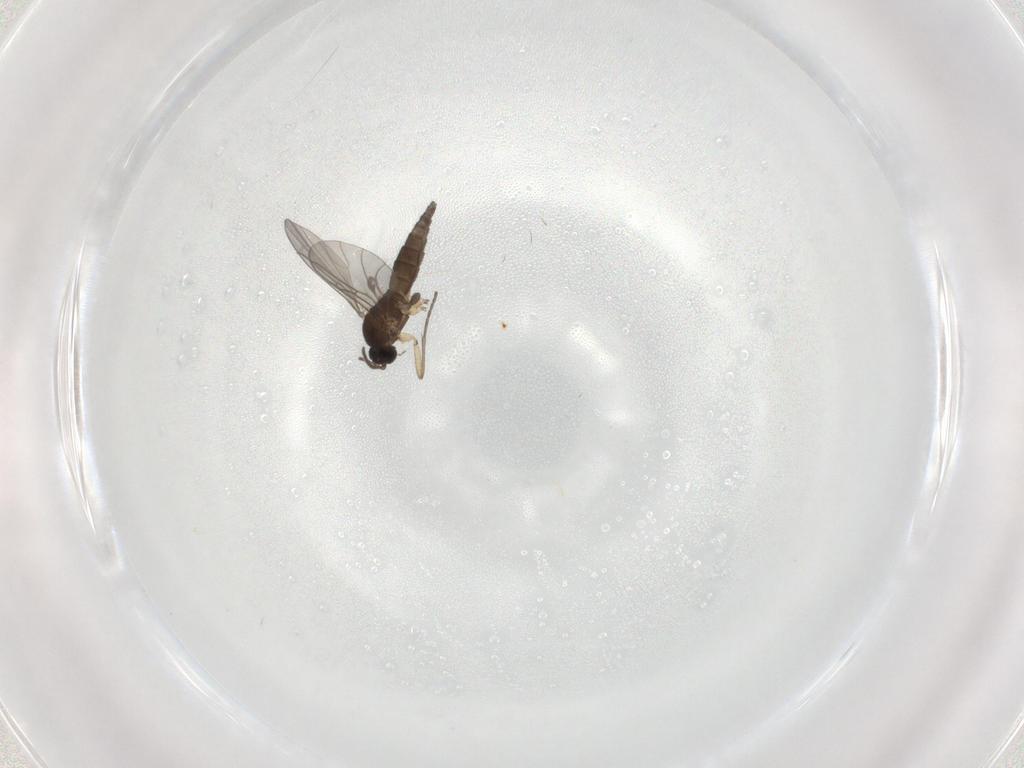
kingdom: Animalia
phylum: Arthropoda
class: Insecta
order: Diptera
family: Sciaridae
